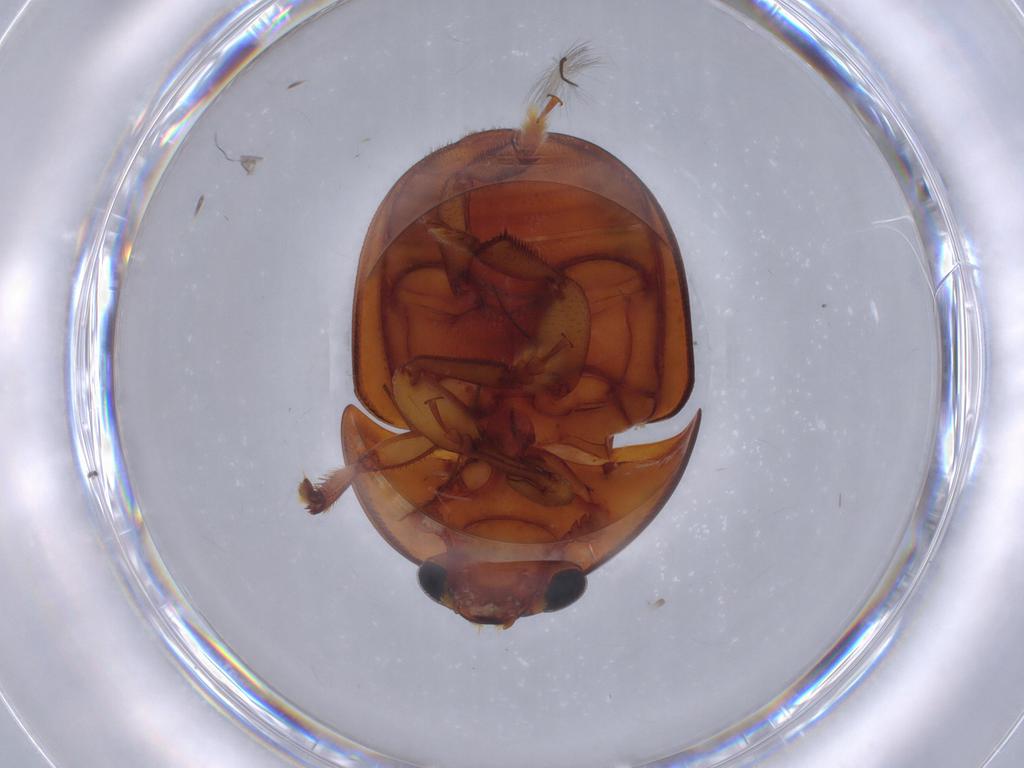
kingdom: Animalia
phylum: Arthropoda
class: Insecta
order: Coleoptera
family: Nitidulidae
